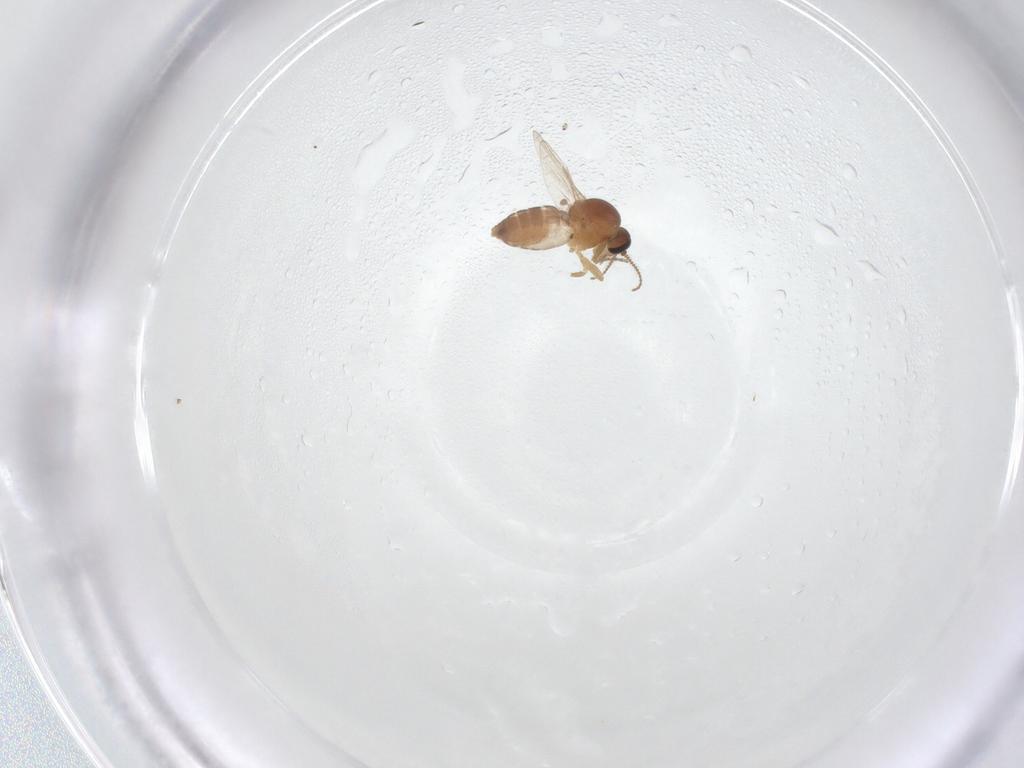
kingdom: Animalia
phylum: Arthropoda
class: Insecta
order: Diptera
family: Ceratopogonidae
